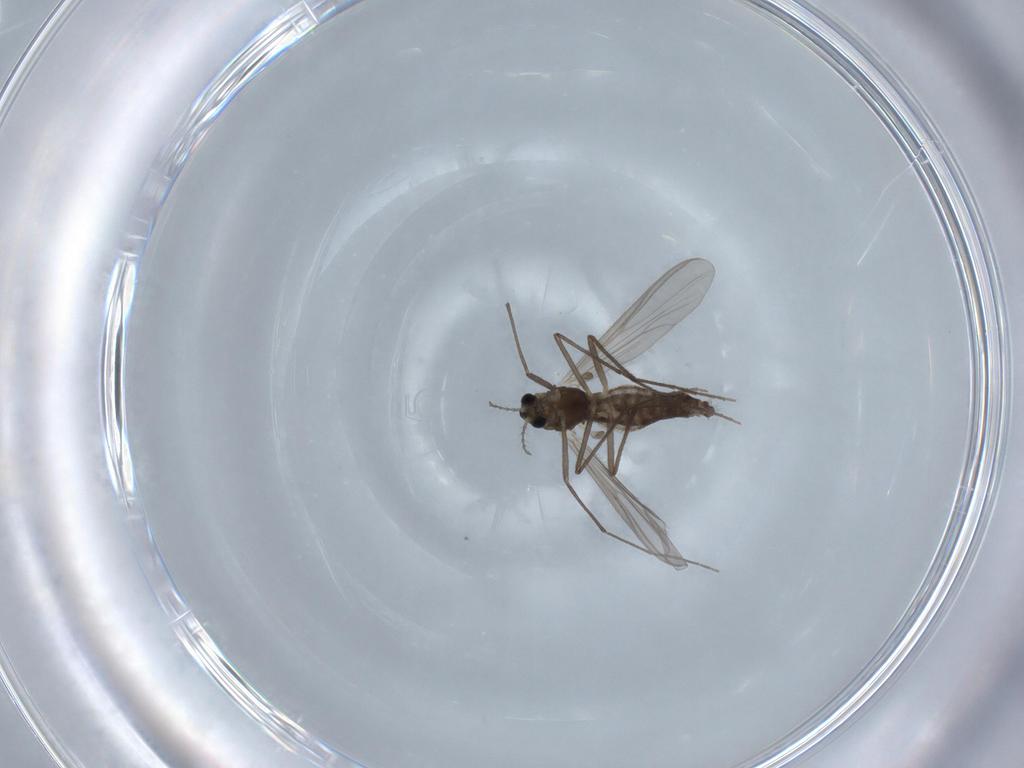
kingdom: Animalia
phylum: Arthropoda
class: Insecta
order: Diptera
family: Chironomidae
